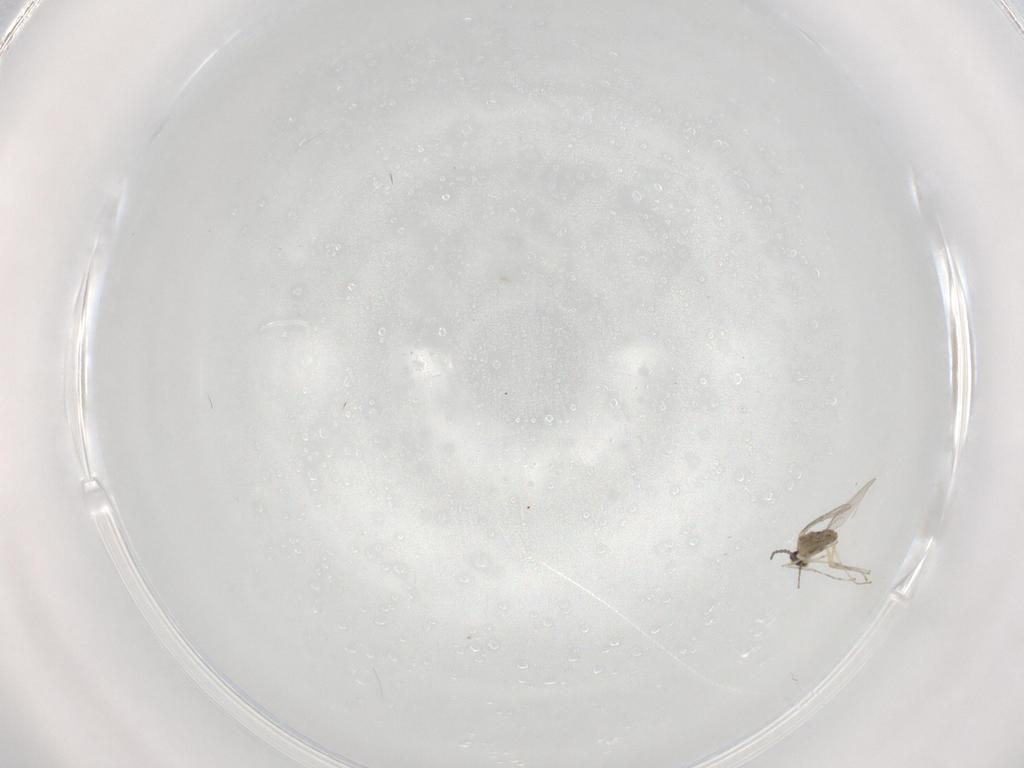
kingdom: Animalia
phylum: Arthropoda
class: Insecta
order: Diptera
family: Cecidomyiidae
